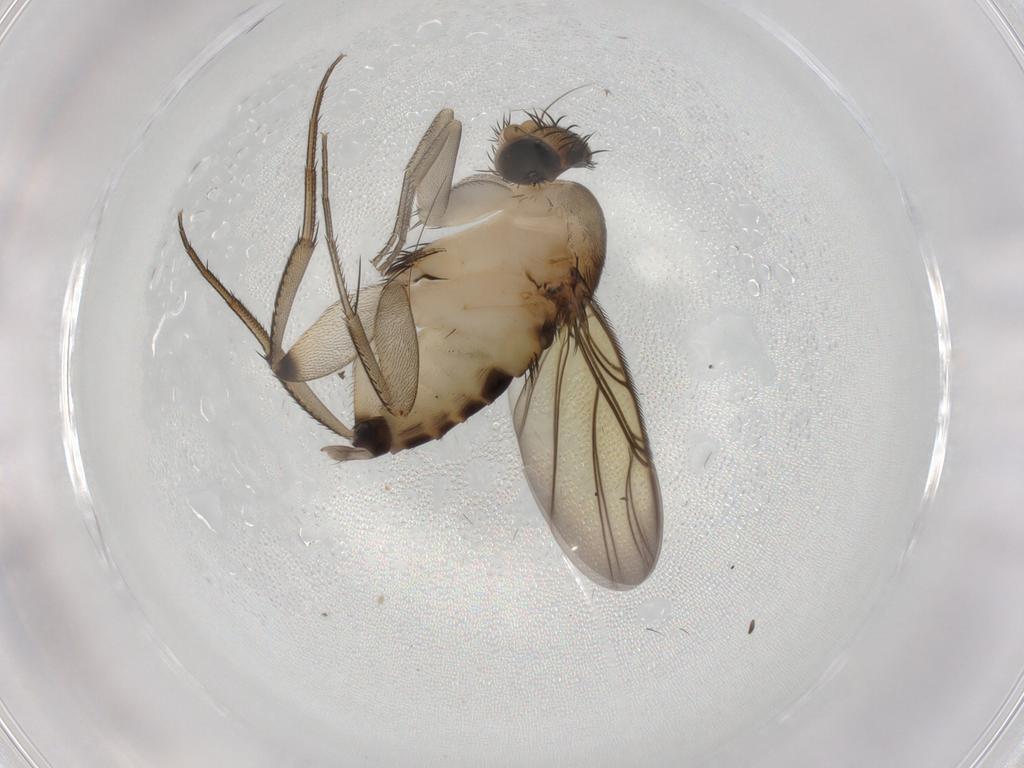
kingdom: Animalia
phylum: Arthropoda
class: Insecta
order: Diptera
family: Phoridae
